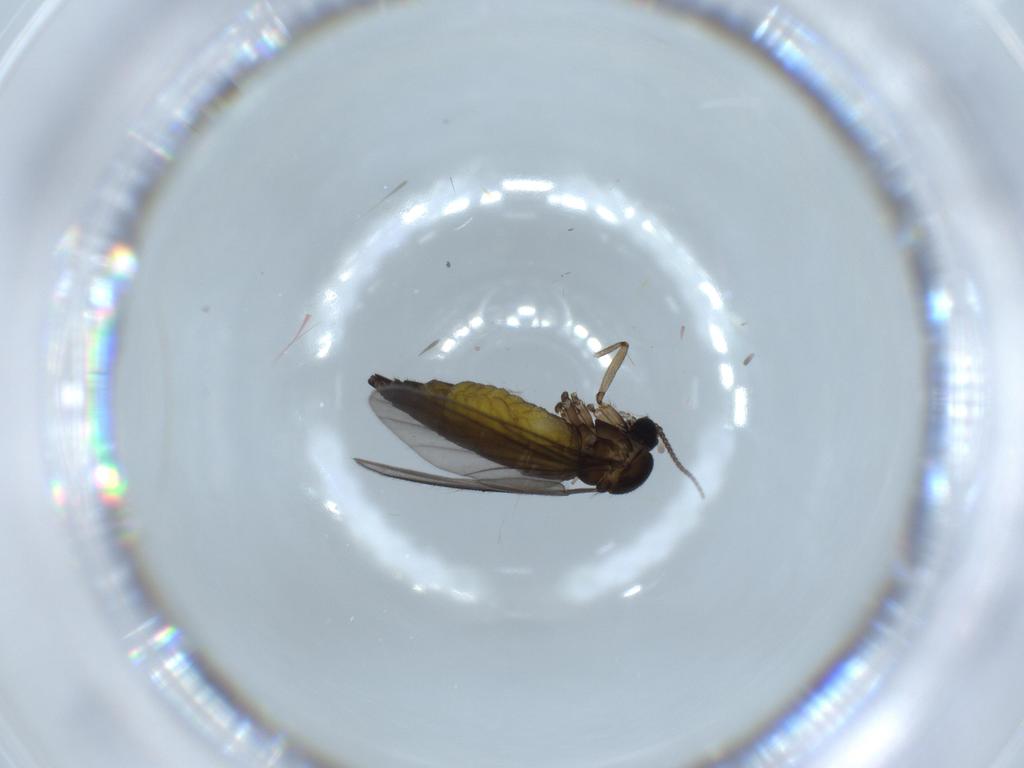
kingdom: Animalia
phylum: Arthropoda
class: Insecta
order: Diptera
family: Sciaridae
